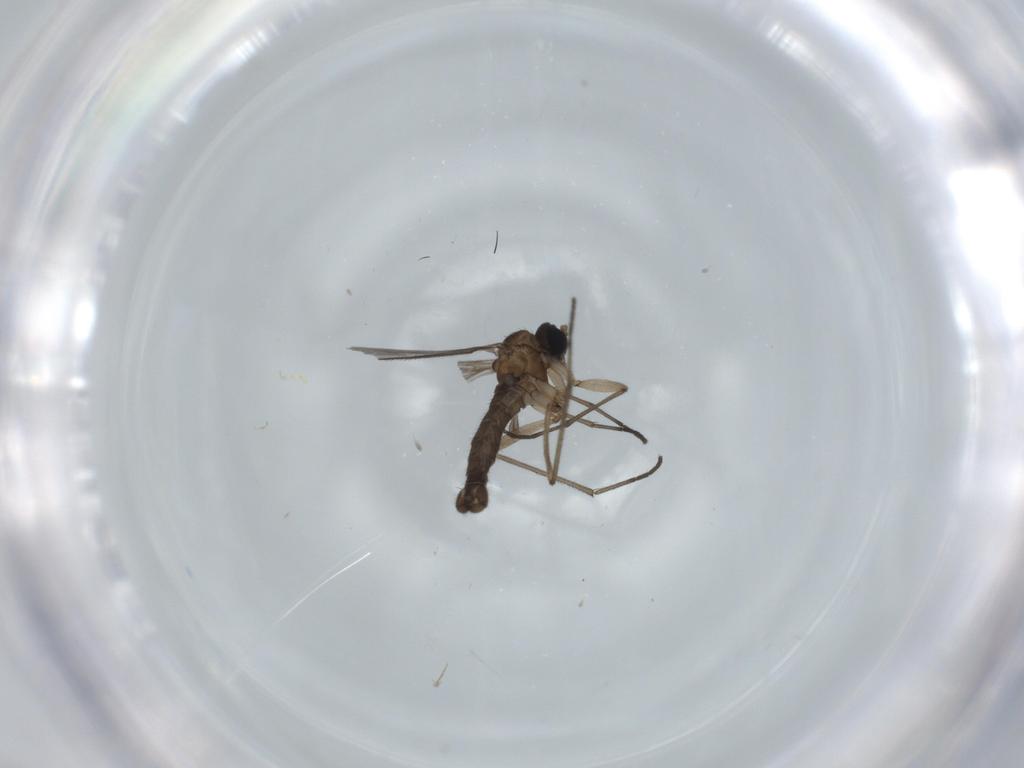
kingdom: Animalia
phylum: Arthropoda
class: Insecta
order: Diptera
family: Sciaridae
